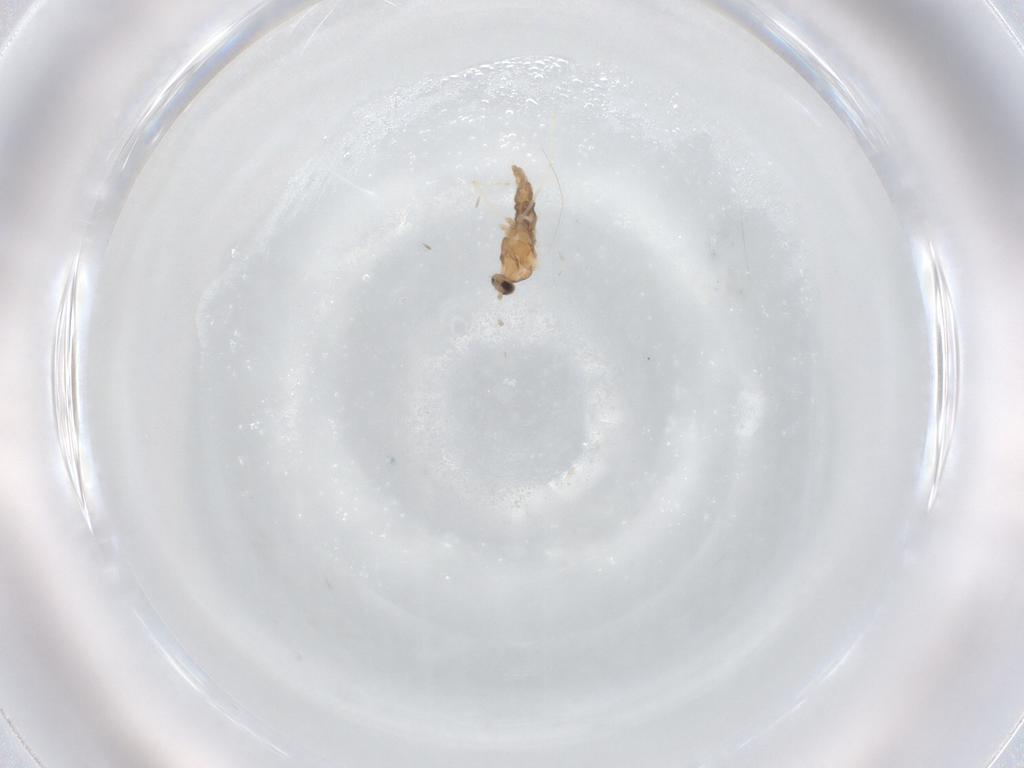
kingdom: Animalia
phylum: Arthropoda
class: Insecta
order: Diptera
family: Cecidomyiidae
